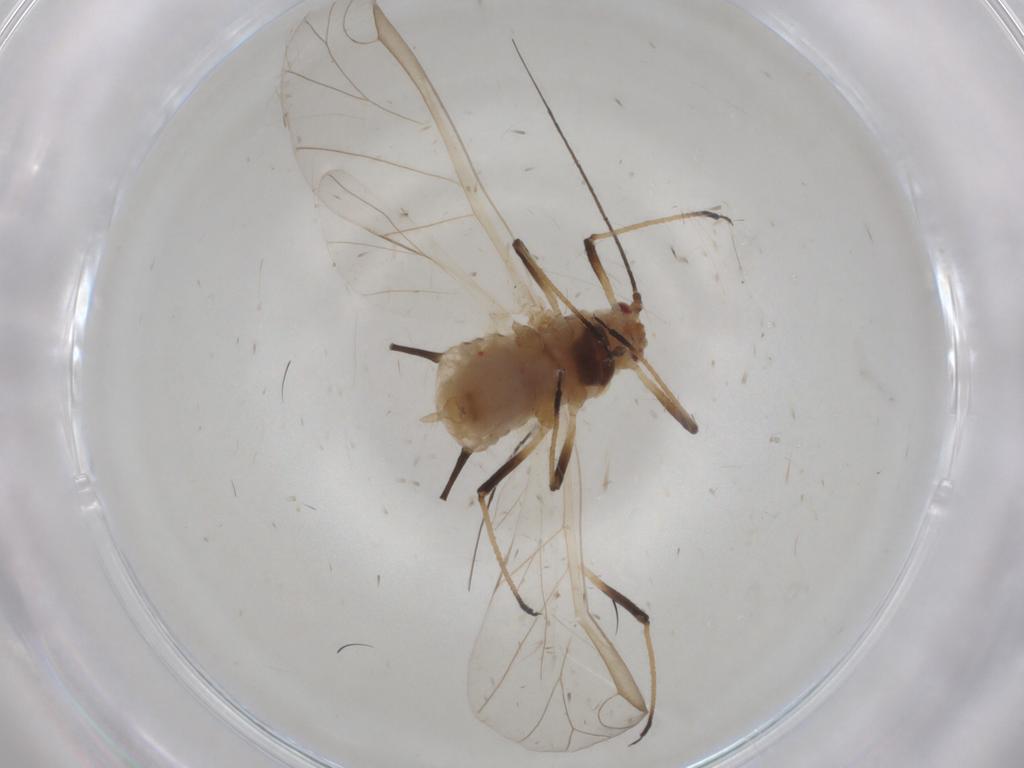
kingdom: Animalia
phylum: Arthropoda
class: Insecta
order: Hemiptera
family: Aphididae
